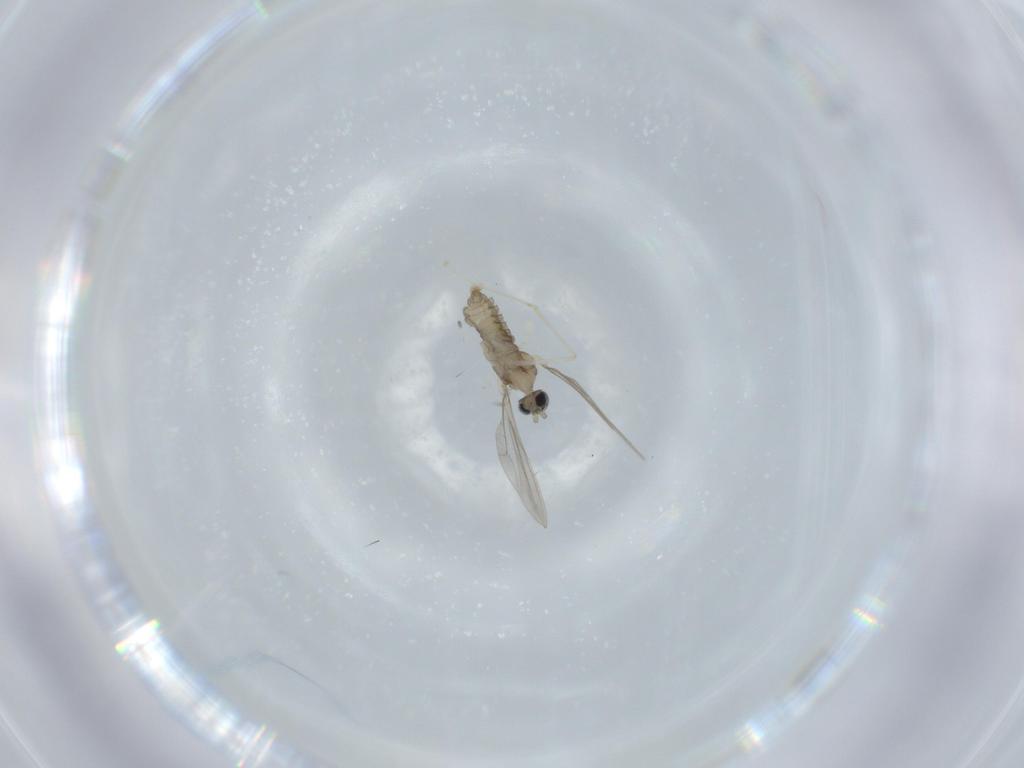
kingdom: Animalia
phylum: Arthropoda
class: Insecta
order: Diptera
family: Cecidomyiidae
